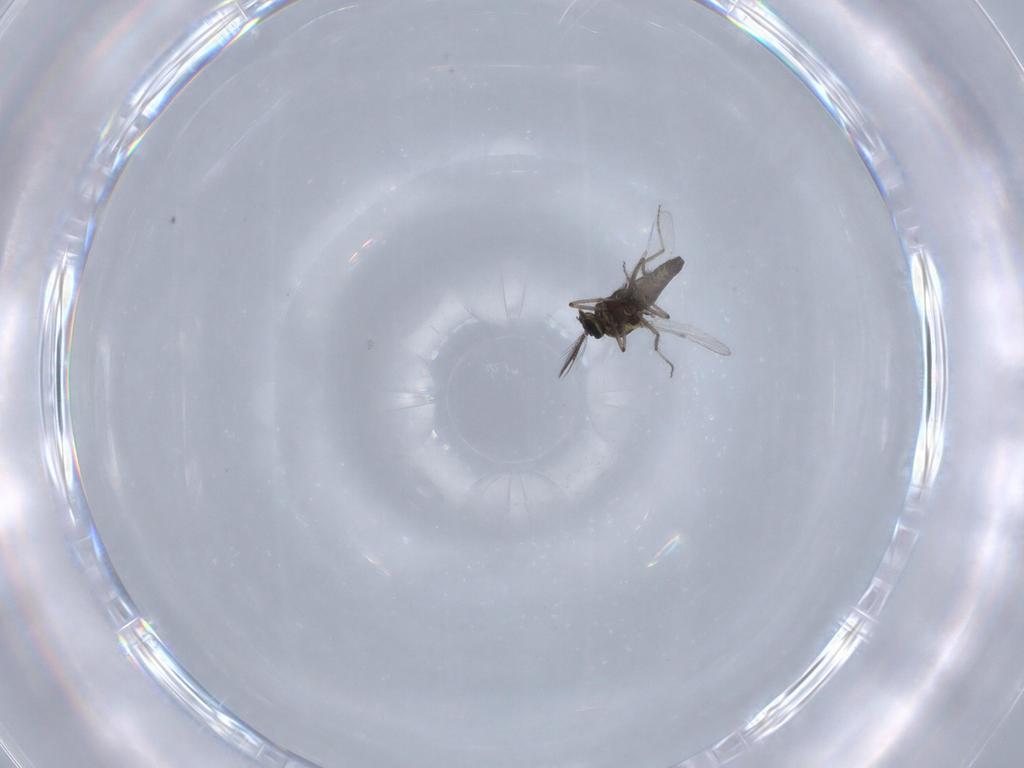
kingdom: Animalia
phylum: Arthropoda
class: Insecta
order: Diptera
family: Ceratopogonidae
